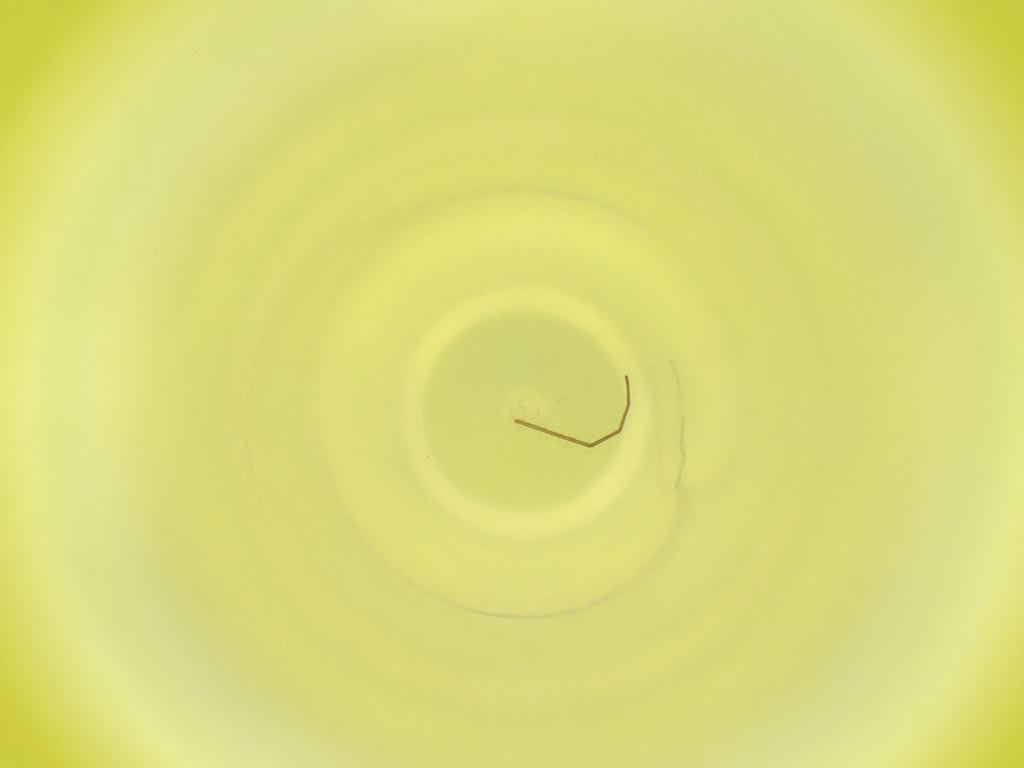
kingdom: Animalia
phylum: Arthropoda
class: Insecta
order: Diptera
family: Cecidomyiidae
